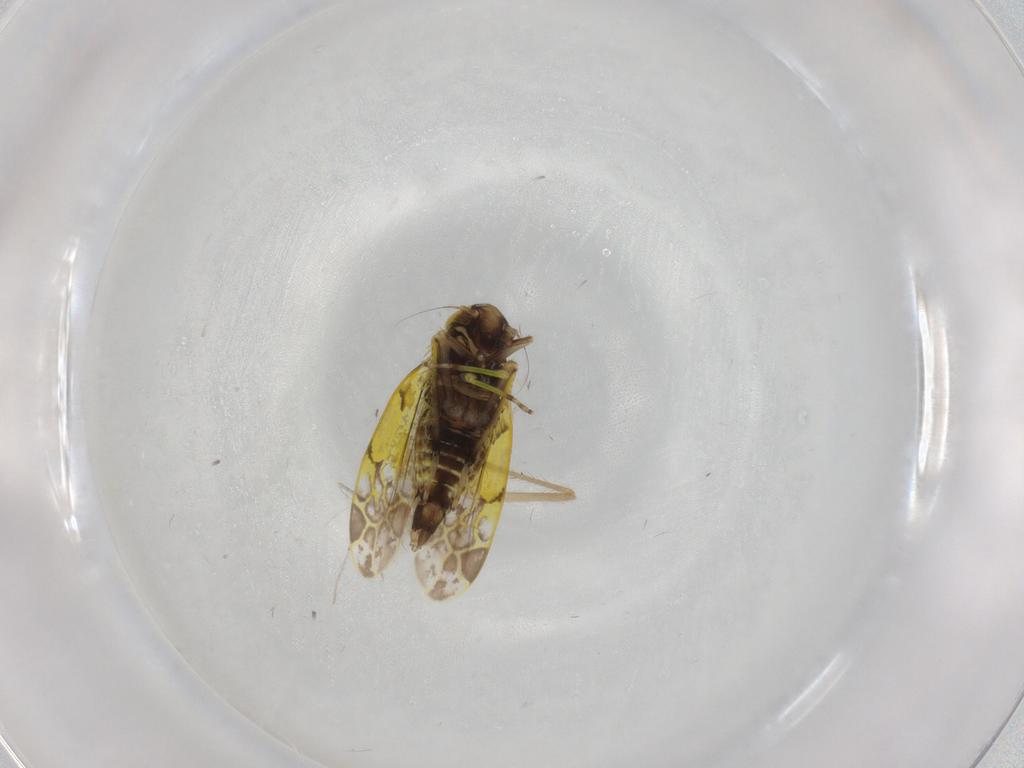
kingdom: Animalia
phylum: Arthropoda
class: Insecta
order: Hemiptera
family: Cicadellidae
